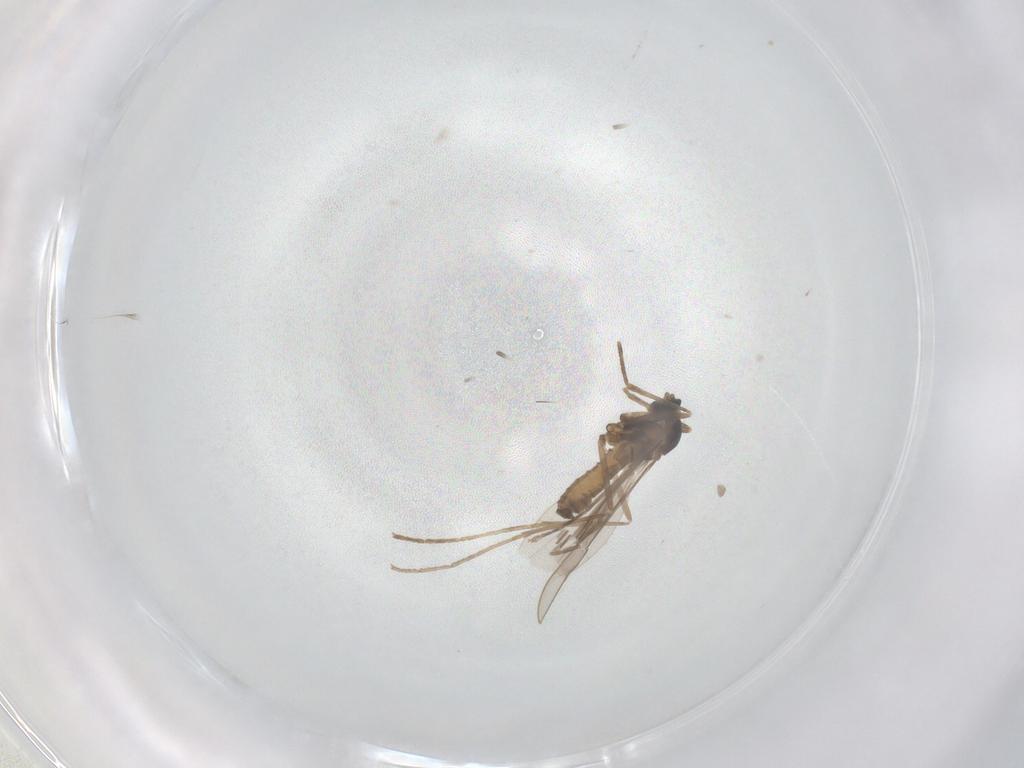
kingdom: Animalia
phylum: Arthropoda
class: Insecta
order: Diptera
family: Cecidomyiidae
